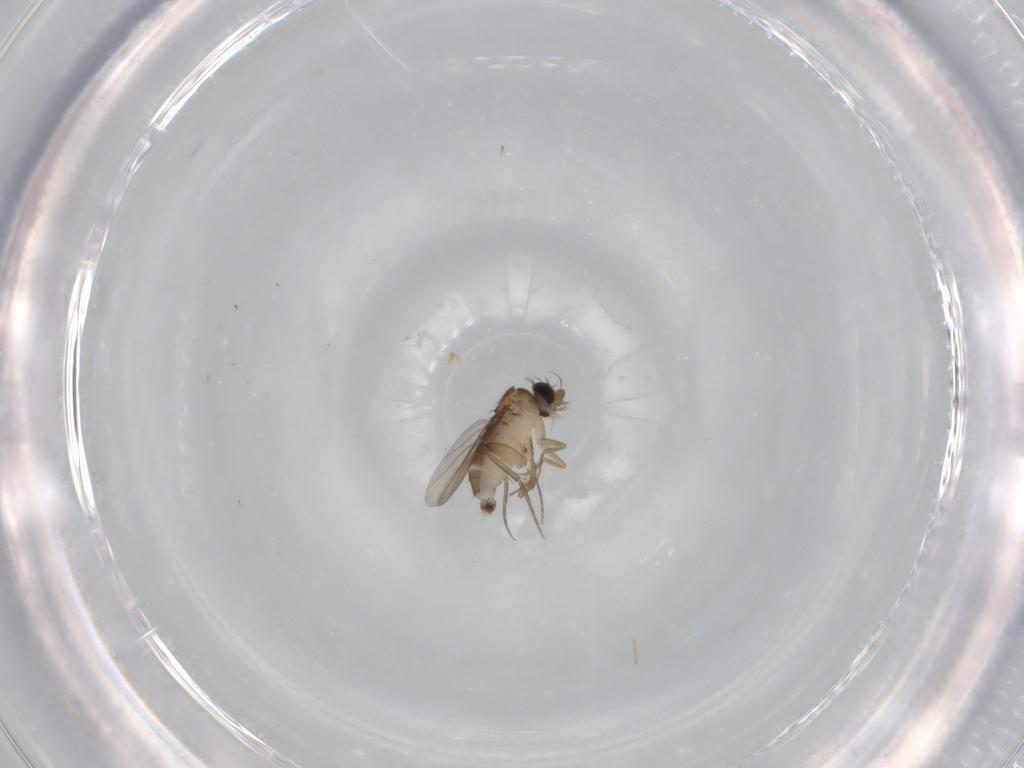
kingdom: Animalia
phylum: Arthropoda
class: Insecta
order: Diptera
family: Phoridae
